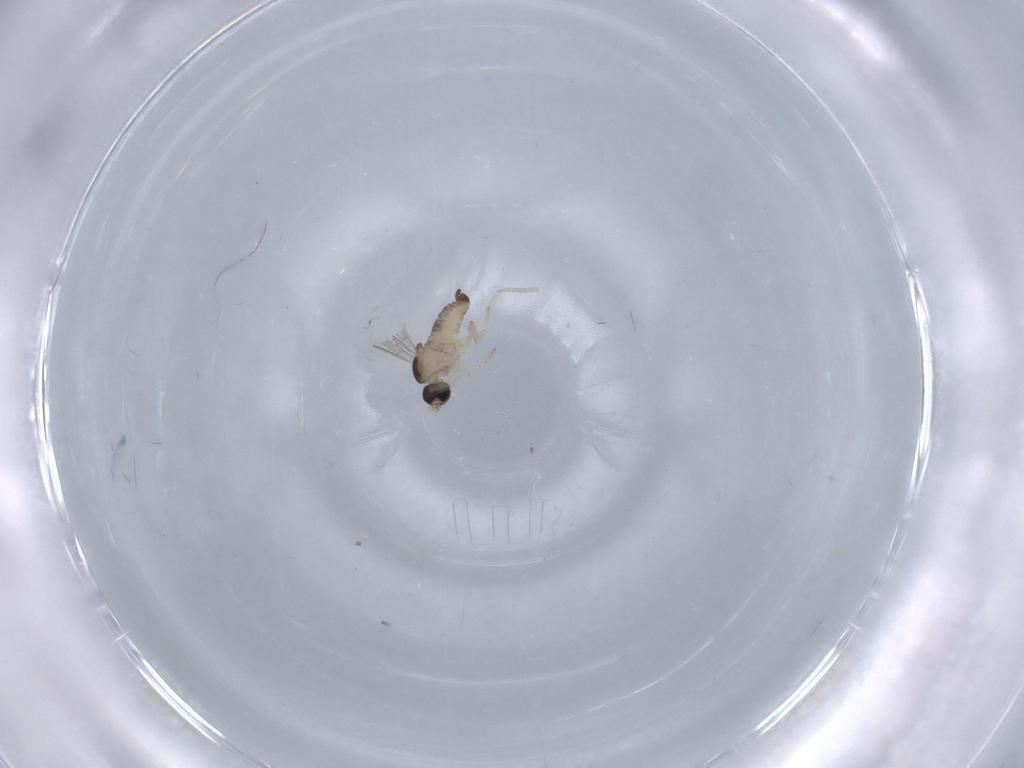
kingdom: Animalia
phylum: Arthropoda
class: Insecta
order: Diptera
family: Cecidomyiidae
